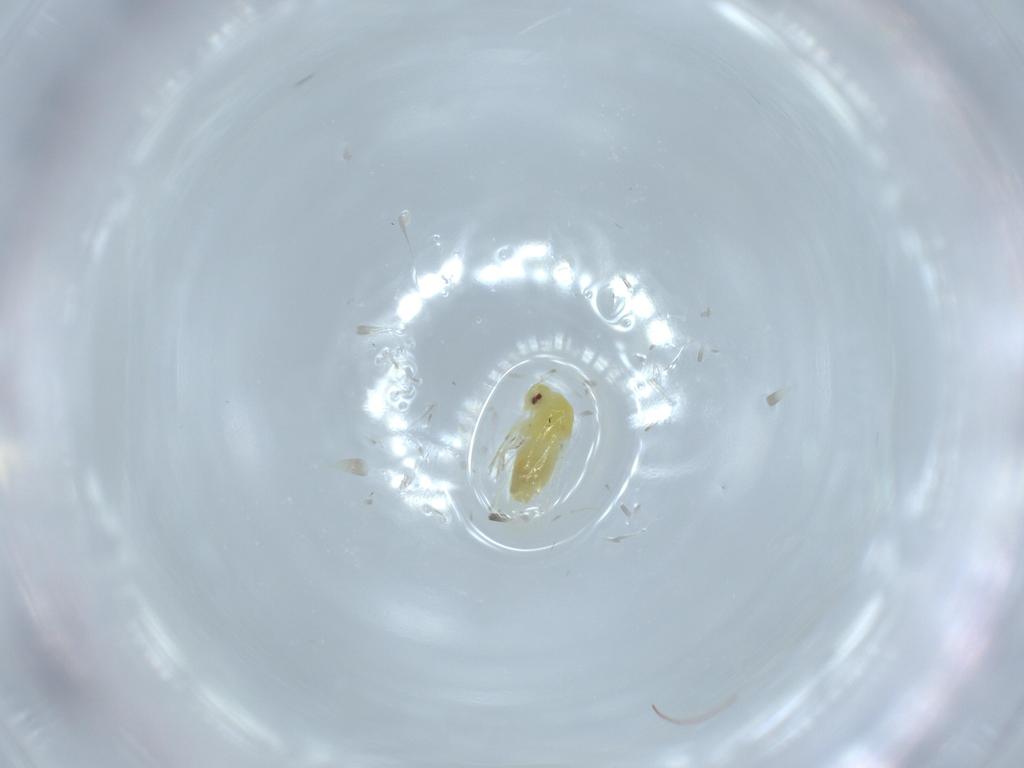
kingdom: Animalia
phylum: Arthropoda
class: Insecta
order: Hemiptera
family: Aleyrodidae
